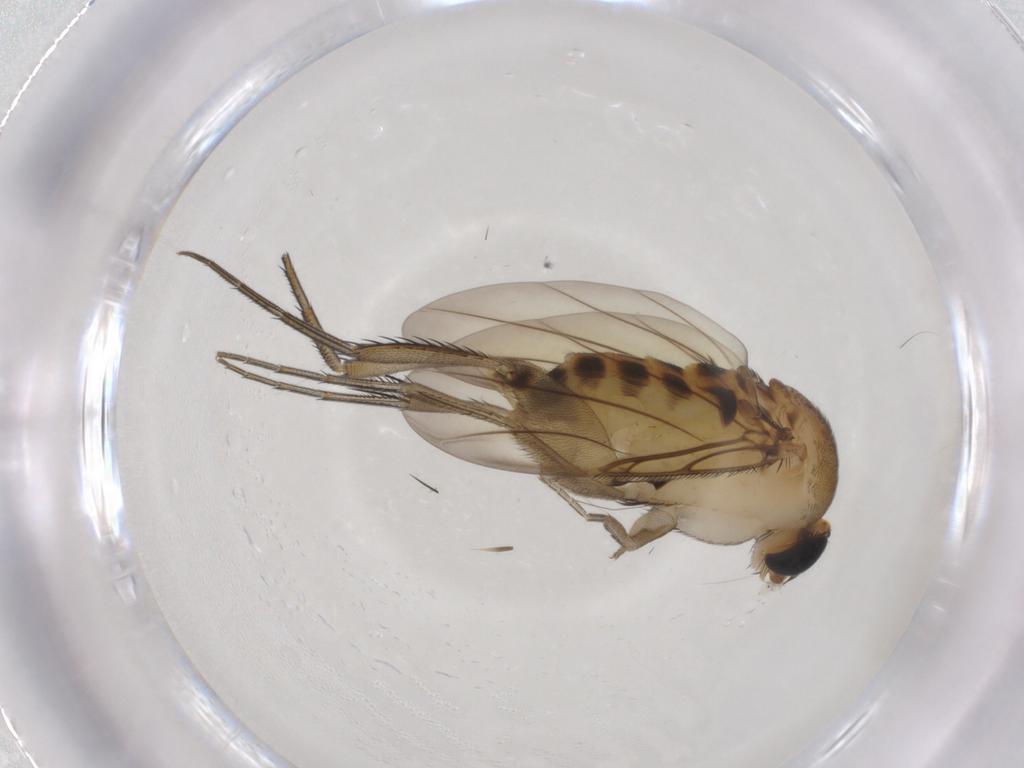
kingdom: Animalia
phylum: Arthropoda
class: Insecta
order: Diptera
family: Phoridae
